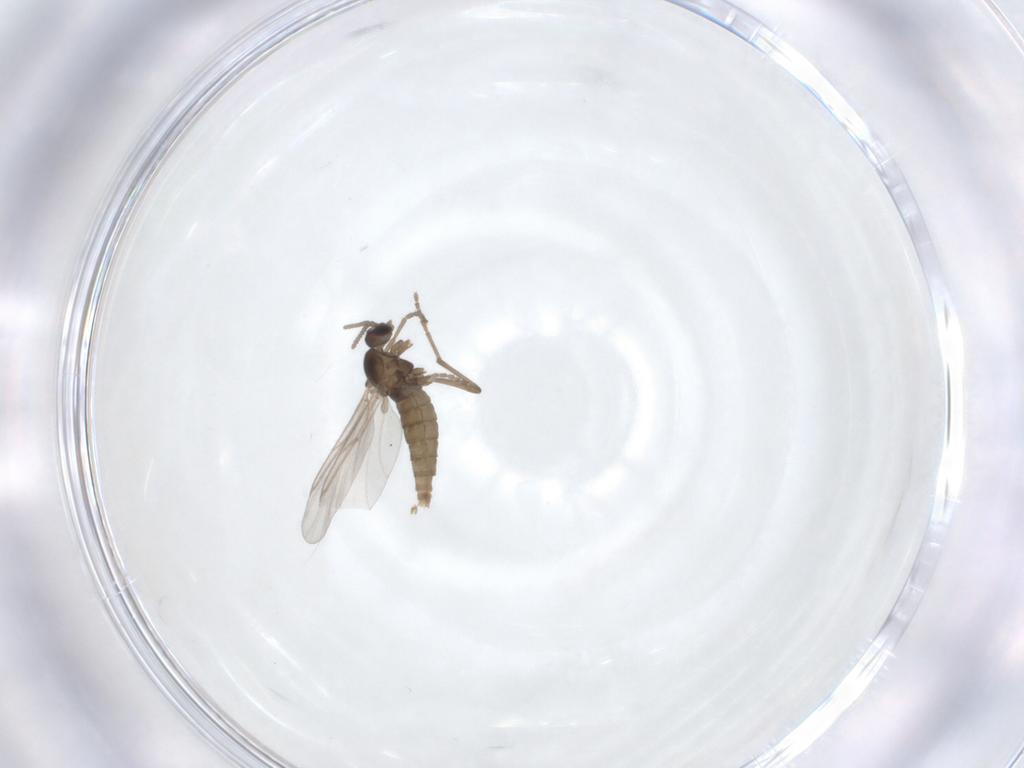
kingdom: Animalia
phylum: Arthropoda
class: Insecta
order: Diptera
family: Cecidomyiidae
